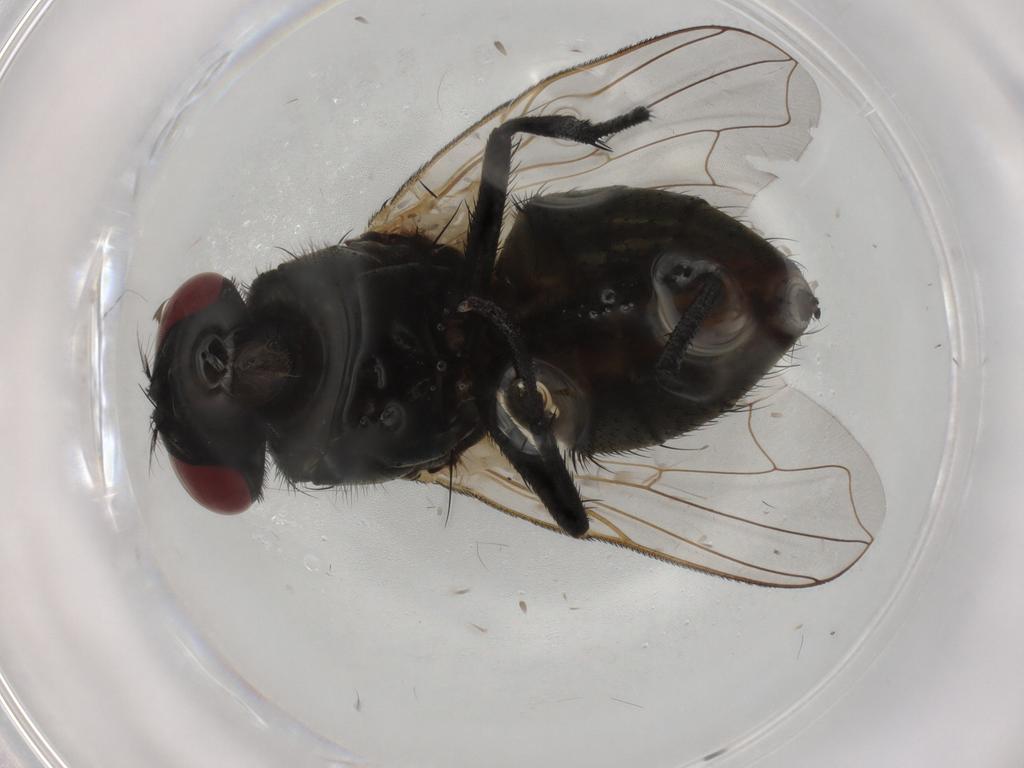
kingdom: Animalia
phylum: Arthropoda
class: Insecta
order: Diptera
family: Muscidae
